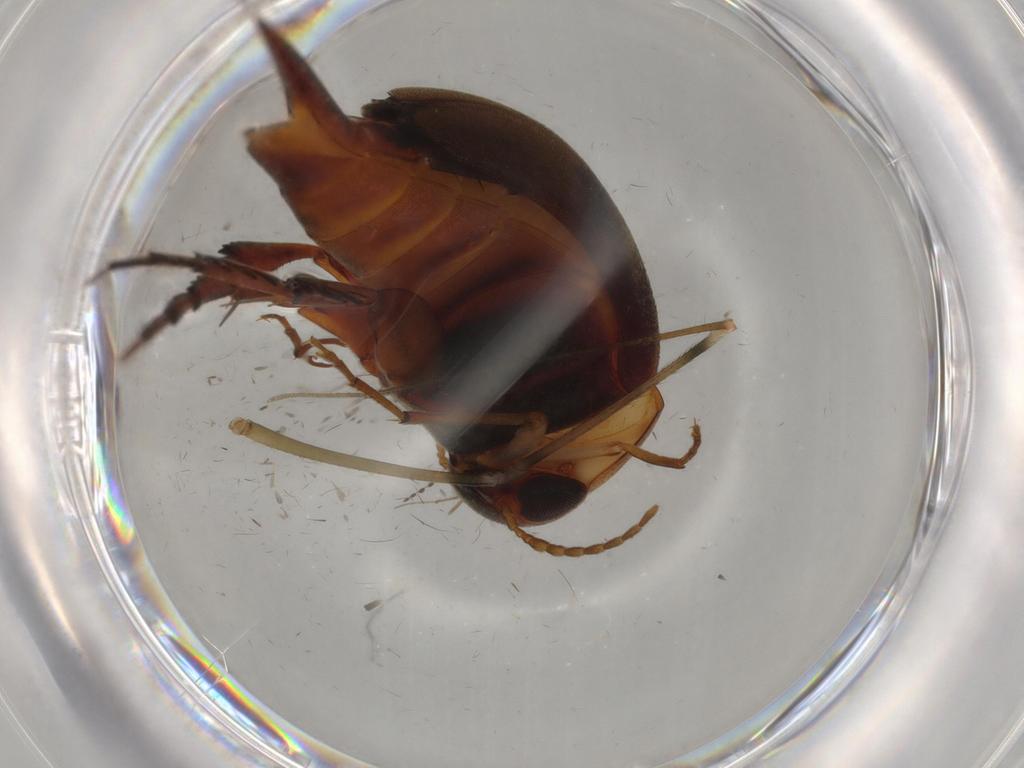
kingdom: Animalia
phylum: Arthropoda
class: Insecta
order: Coleoptera
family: Mordellidae
